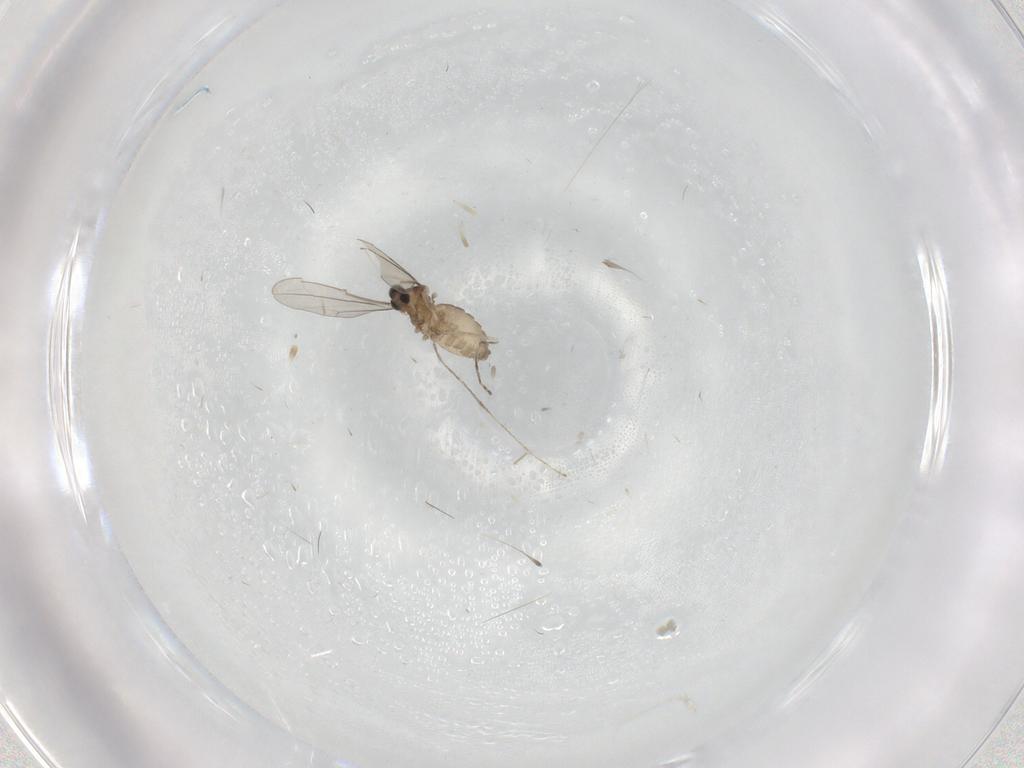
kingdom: Animalia
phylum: Arthropoda
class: Insecta
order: Diptera
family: Cecidomyiidae
